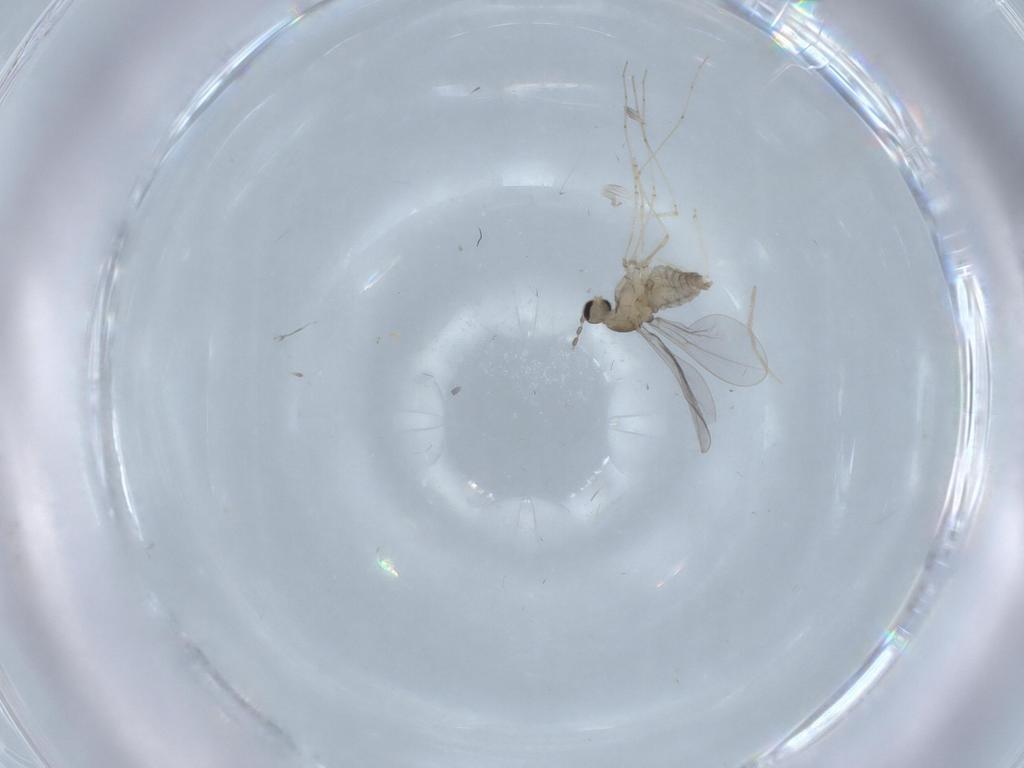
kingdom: Animalia
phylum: Arthropoda
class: Insecta
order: Diptera
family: Cecidomyiidae
